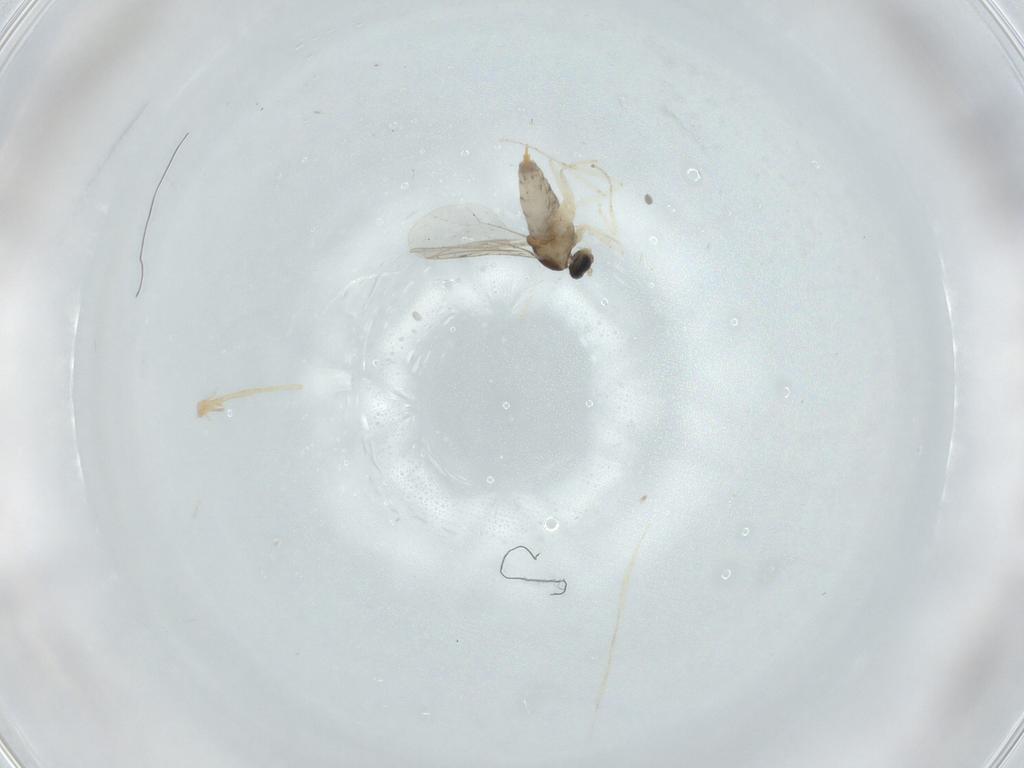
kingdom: Animalia
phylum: Arthropoda
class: Insecta
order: Diptera
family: Cecidomyiidae
